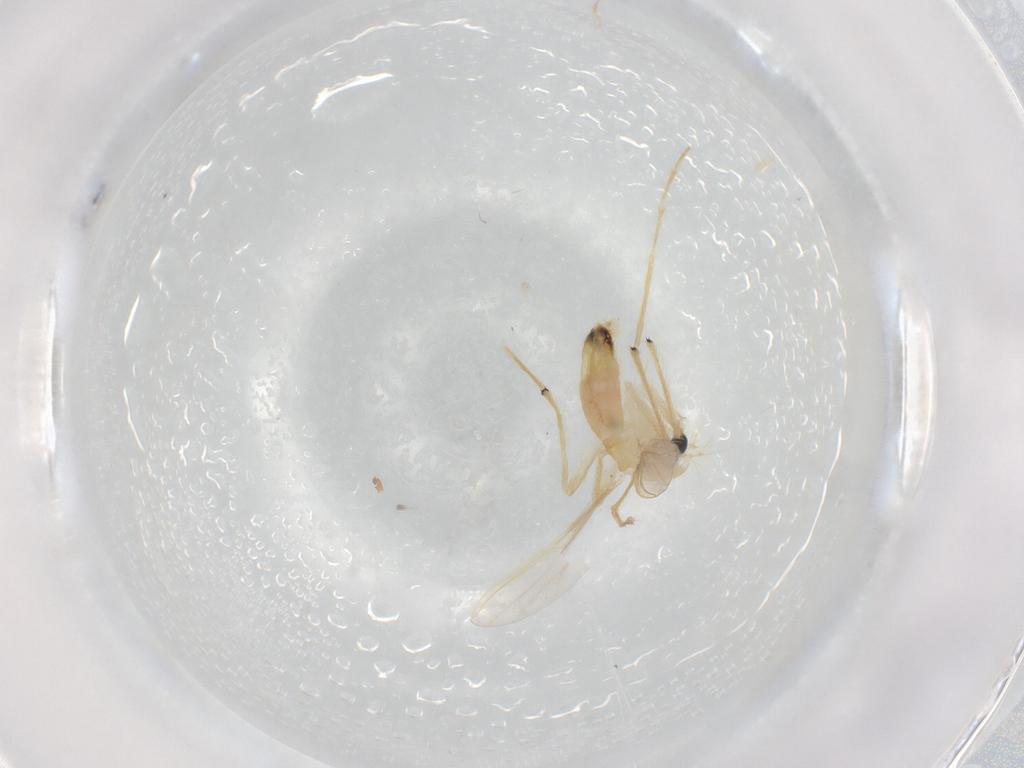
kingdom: Animalia
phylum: Arthropoda
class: Insecta
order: Diptera
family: Chironomidae
